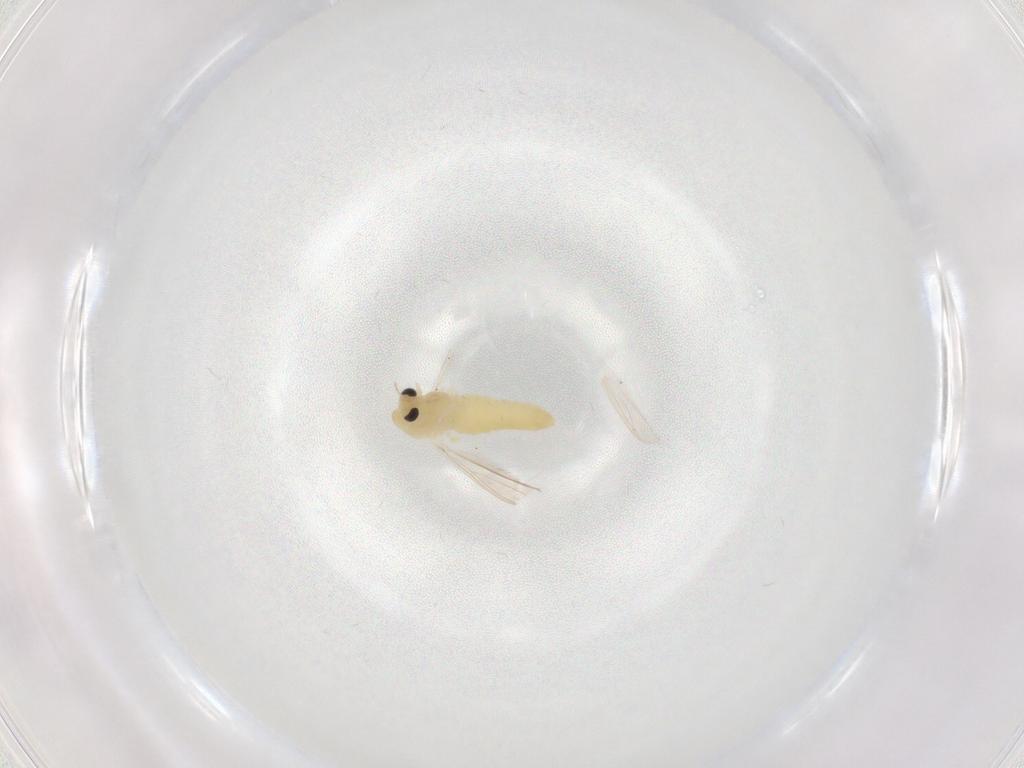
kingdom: Animalia
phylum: Arthropoda
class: Insecta
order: Diptera
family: Chironomidae
